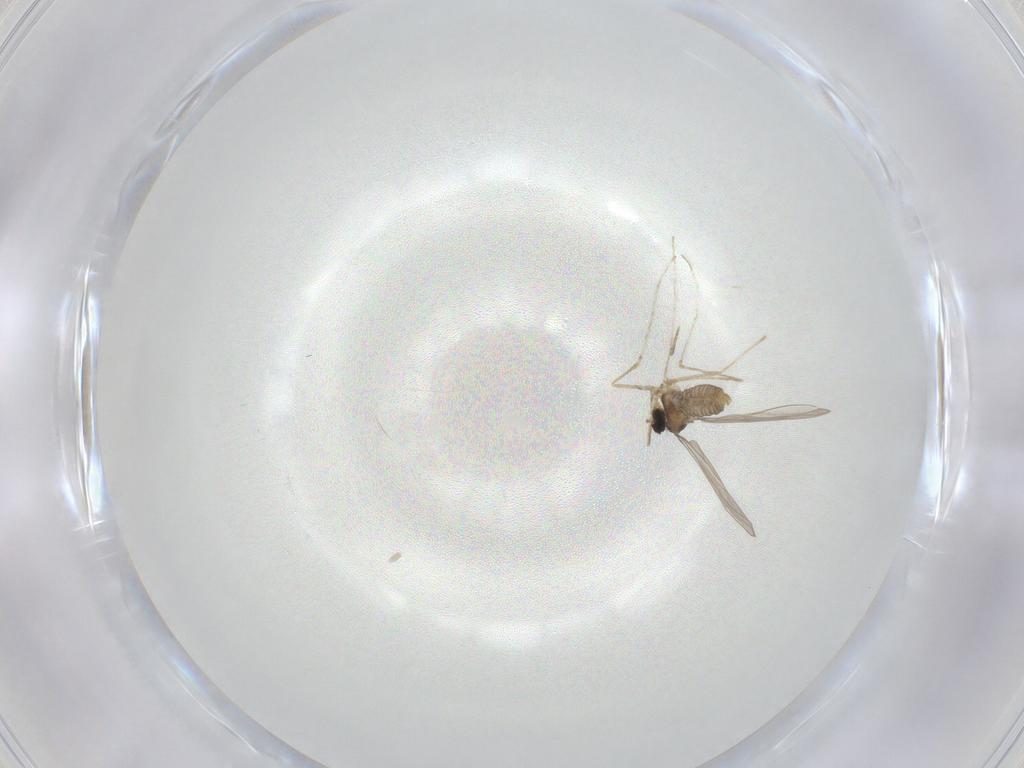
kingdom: Animalia
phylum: Arthropoda
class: Insecta
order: Diptera
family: Cecidomyiidae
